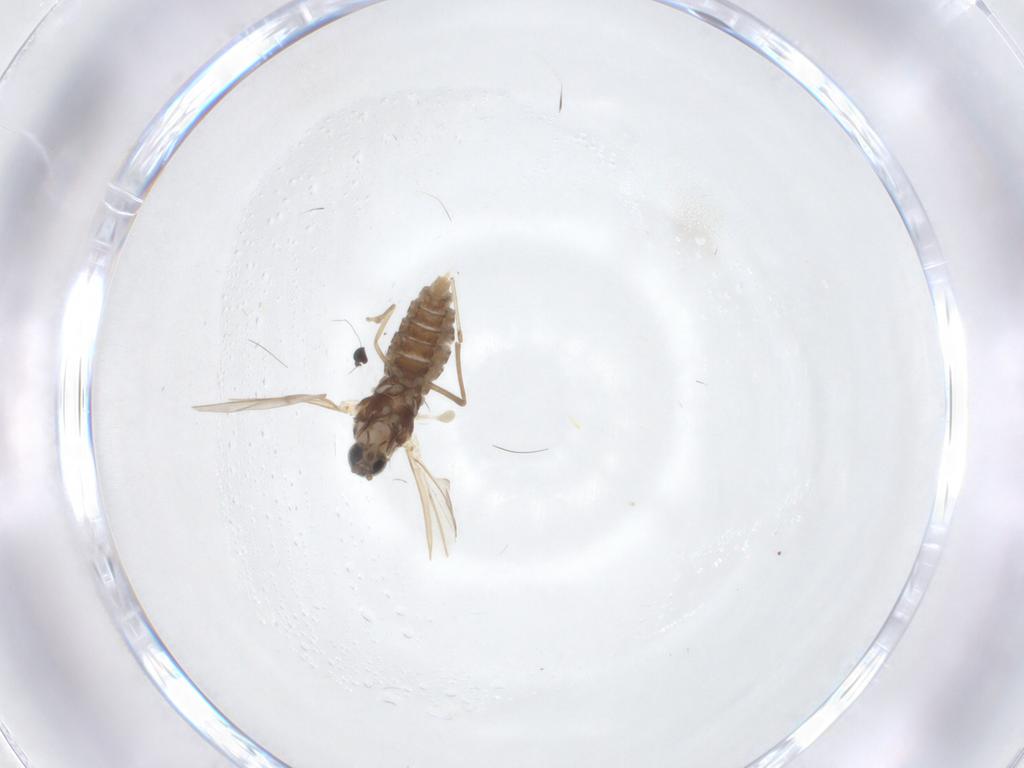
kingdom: Animalia
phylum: Arthropoda
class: Insecta
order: Diptera
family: Cecidomyiidae
